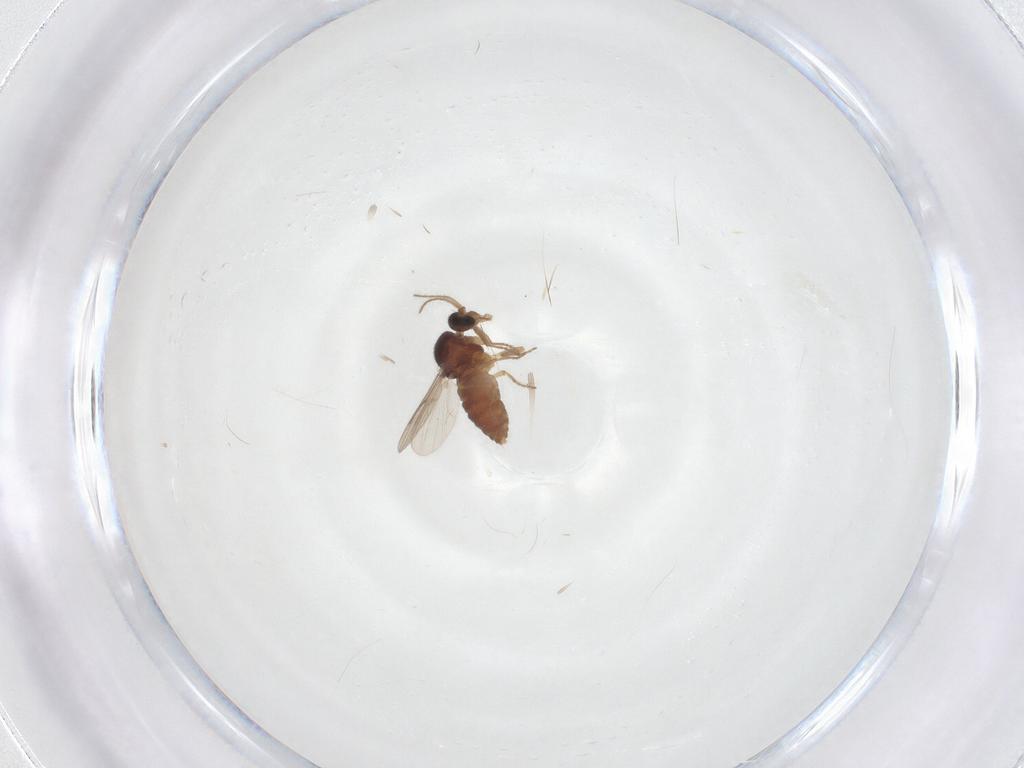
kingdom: Animalia
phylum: Arthropoda
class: Insecta
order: Diptera
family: Ceratopogonidae
